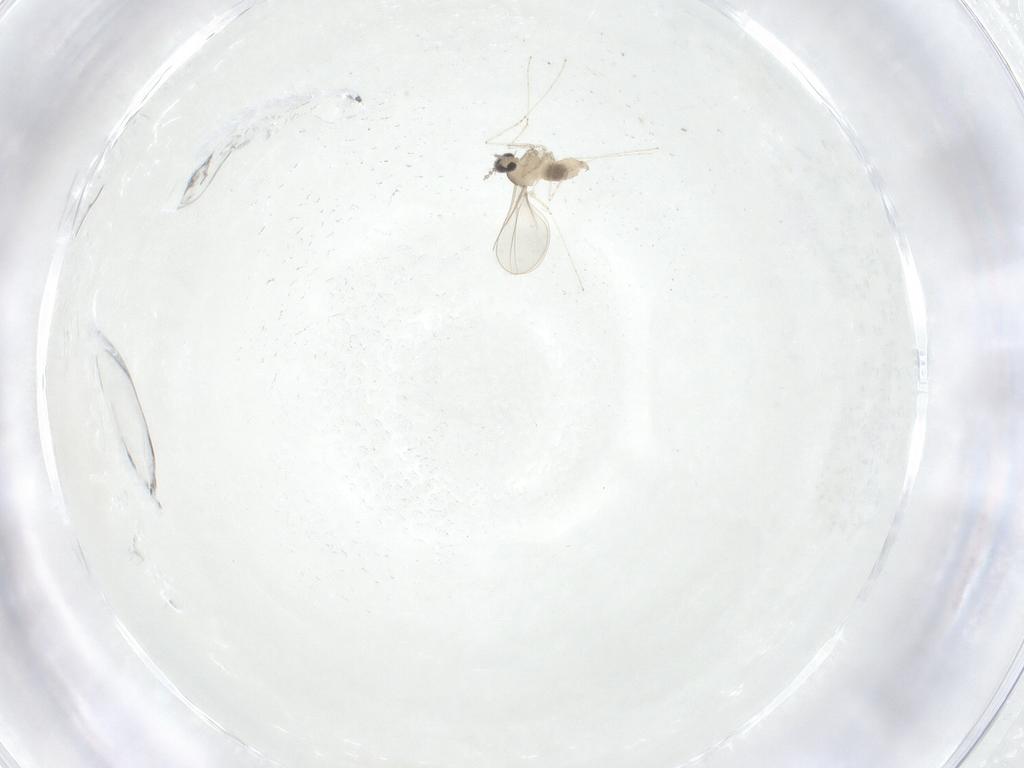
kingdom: Animalia
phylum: Arthropoda
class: Insecta
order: Diptera
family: Cecidomyiidae
